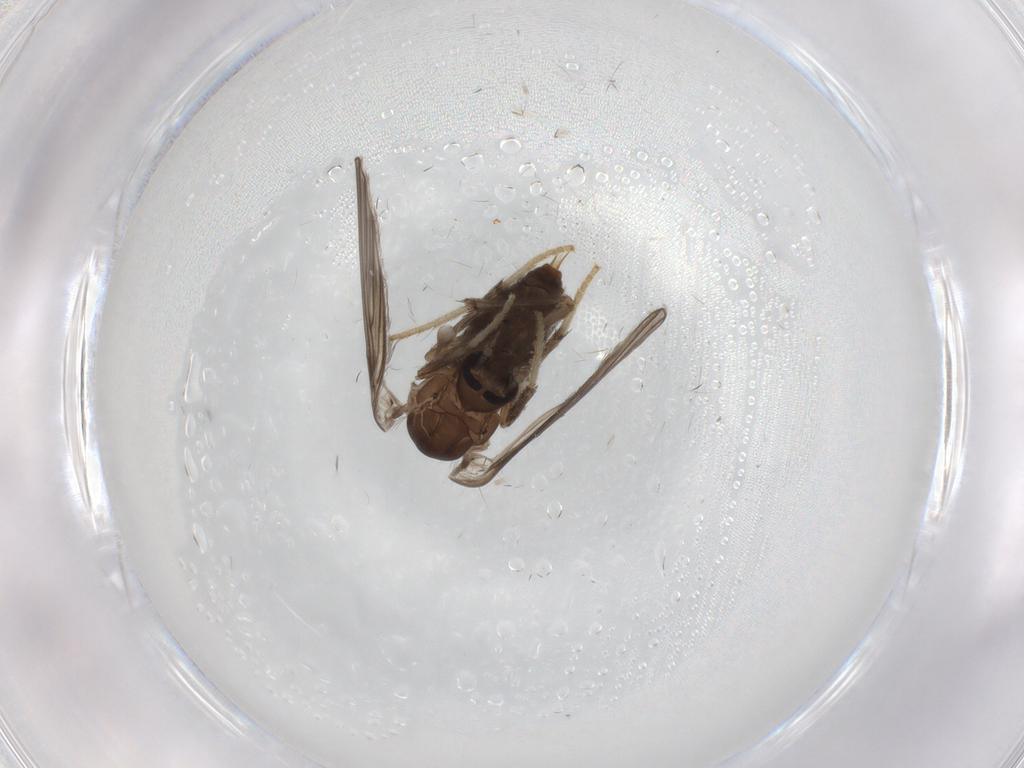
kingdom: Animalia
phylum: Arthropoda
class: Insecta
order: Diptera
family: Psychodidae
